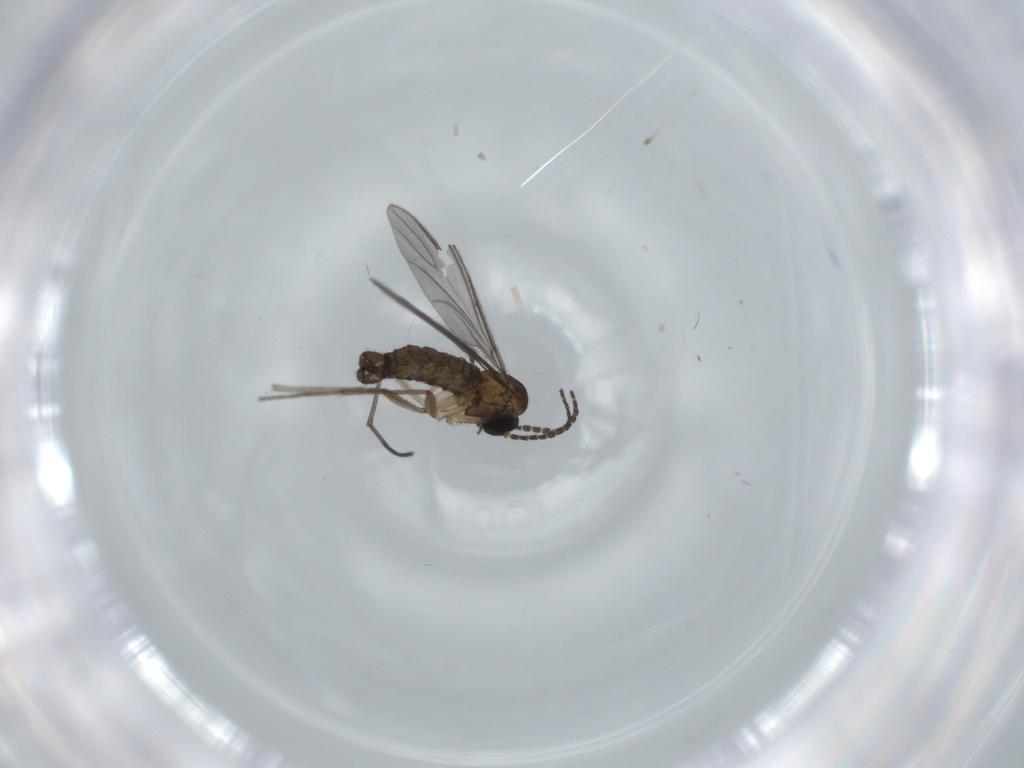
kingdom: Animalia
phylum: Arthropoda
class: Insecta
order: Diptera
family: Sciaridae
